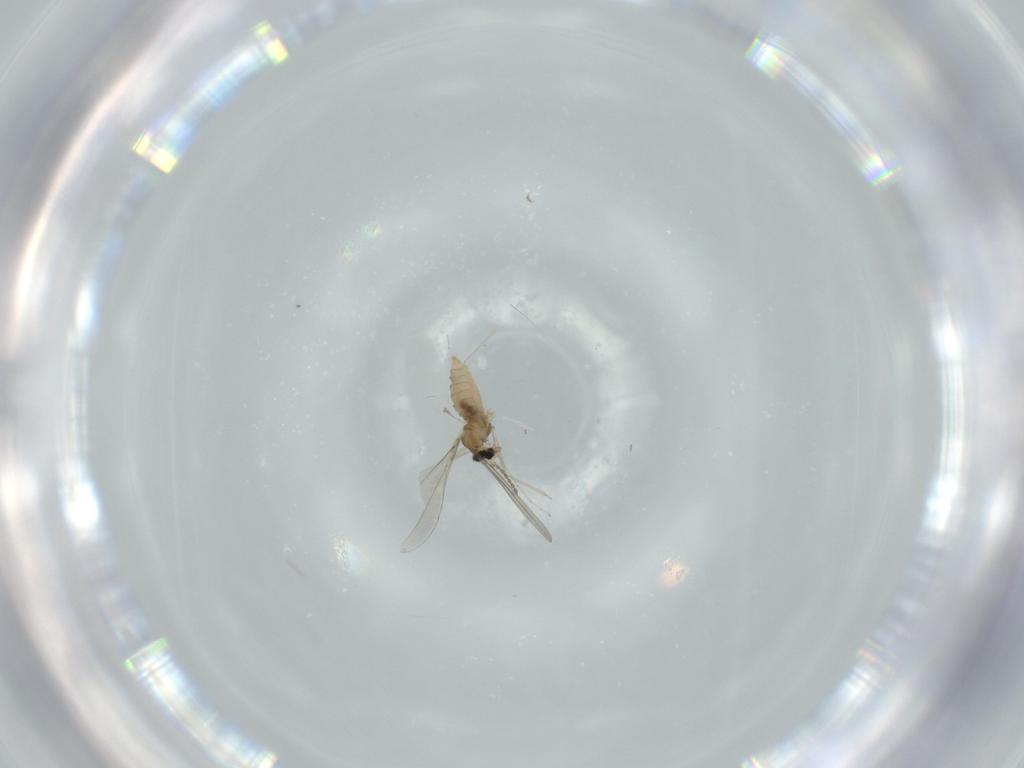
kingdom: Animalia
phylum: Arthropoda
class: Insecta
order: Diptera
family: Cecidomyiidae
